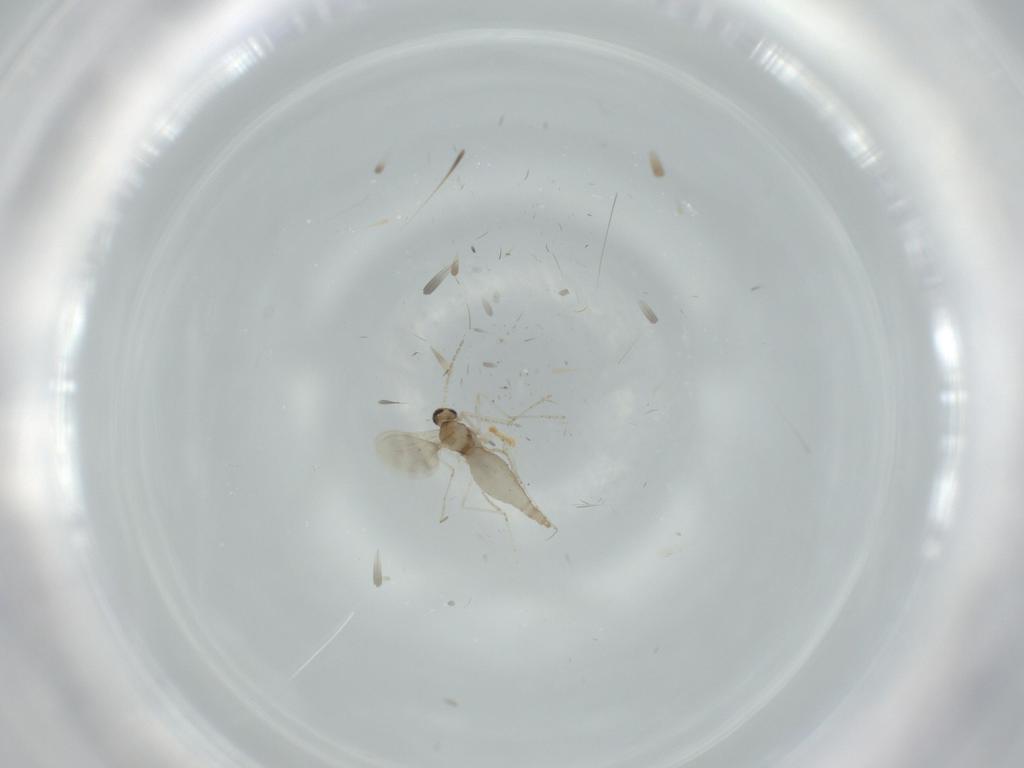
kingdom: Animalia
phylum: Arthropoda
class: Insecta
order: Diptera
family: Cecidomyiidae
